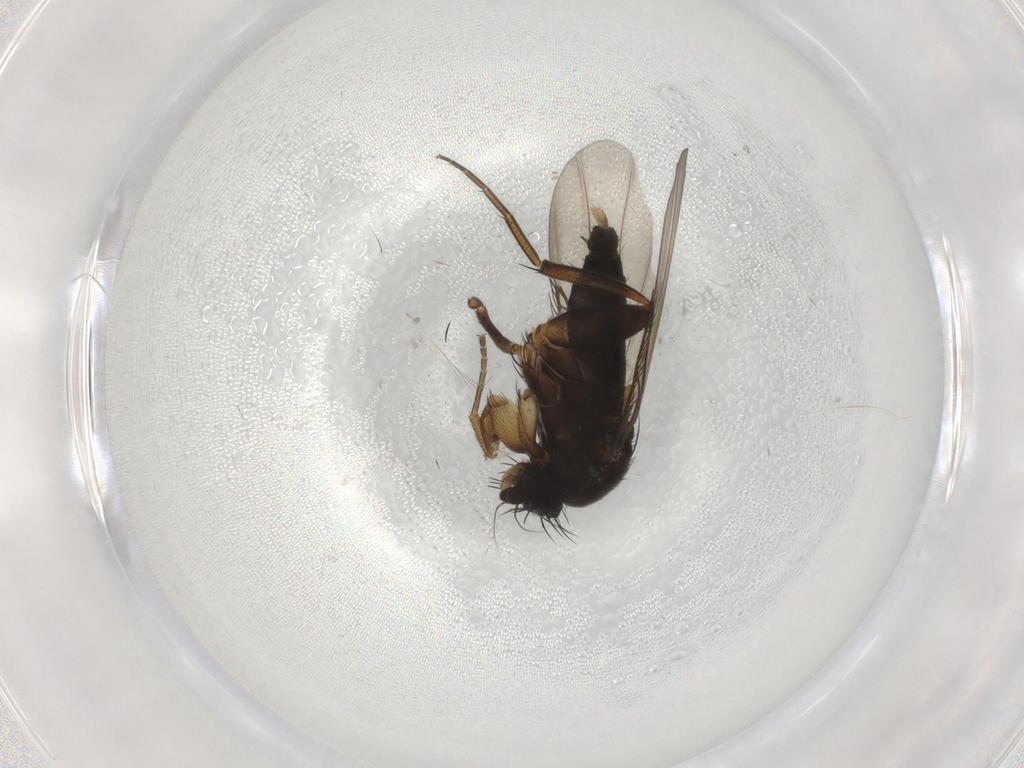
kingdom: Animalia
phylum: Arthropoda
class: Insecta
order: Diptera
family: Phoridae
